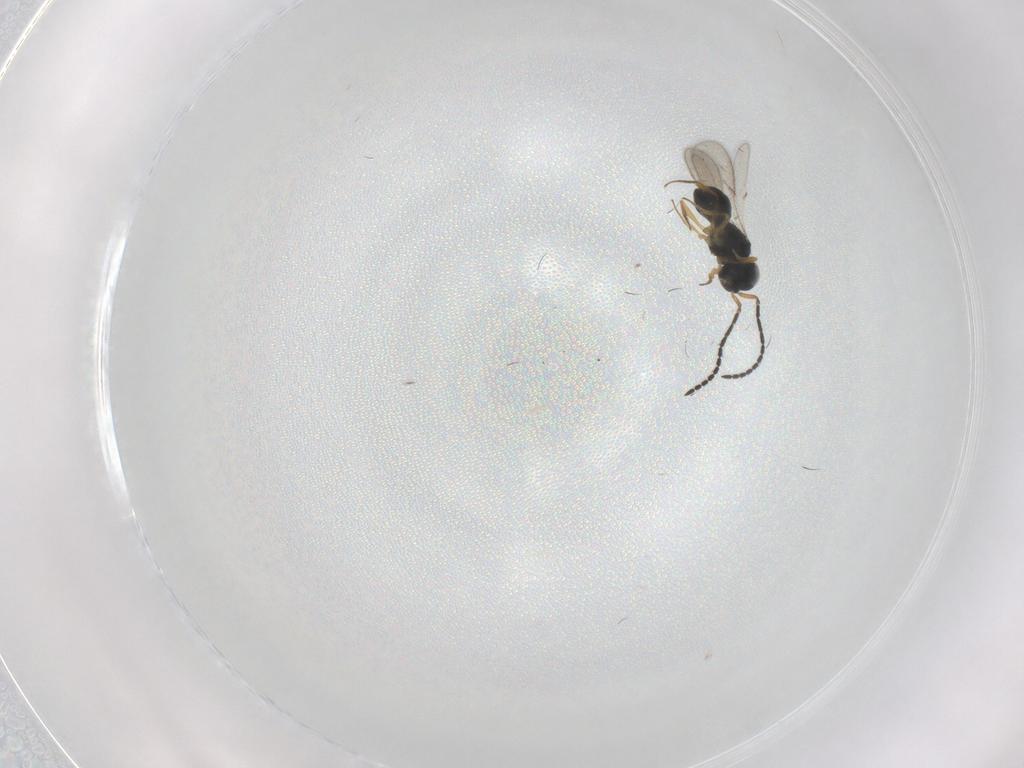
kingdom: Animalia
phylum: Arthropoda
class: Insecta
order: Hymenoptera
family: Scelionidae
